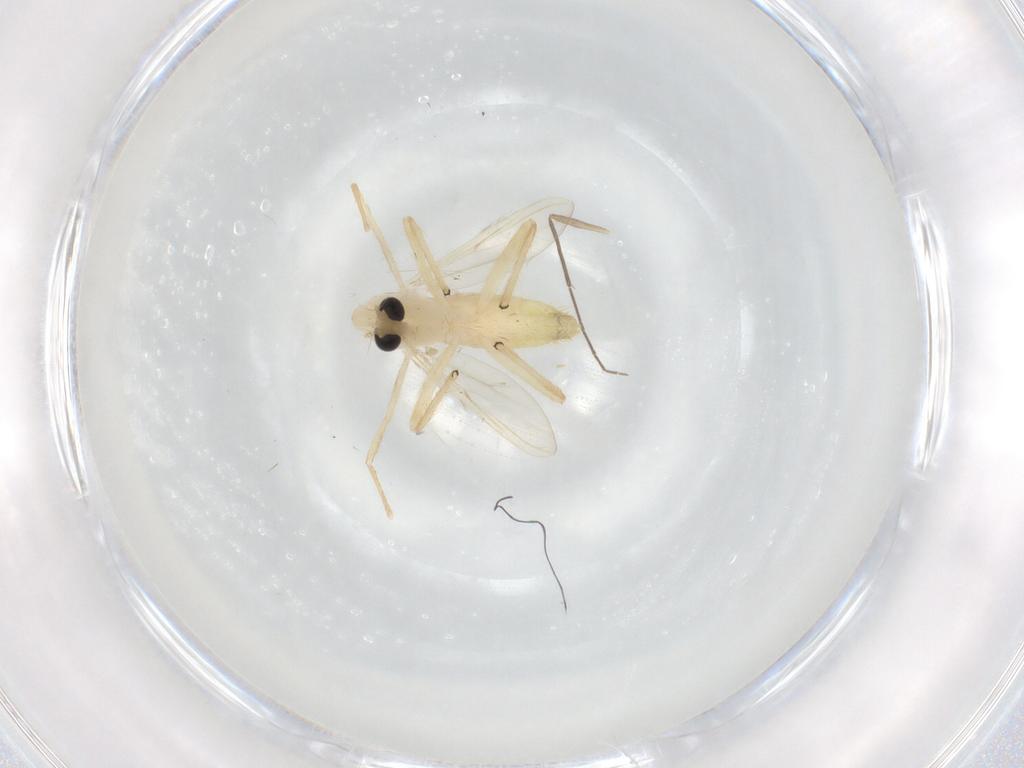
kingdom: Animalia
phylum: Arthropoda
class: Insecta
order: Diptera
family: Chironomidae
